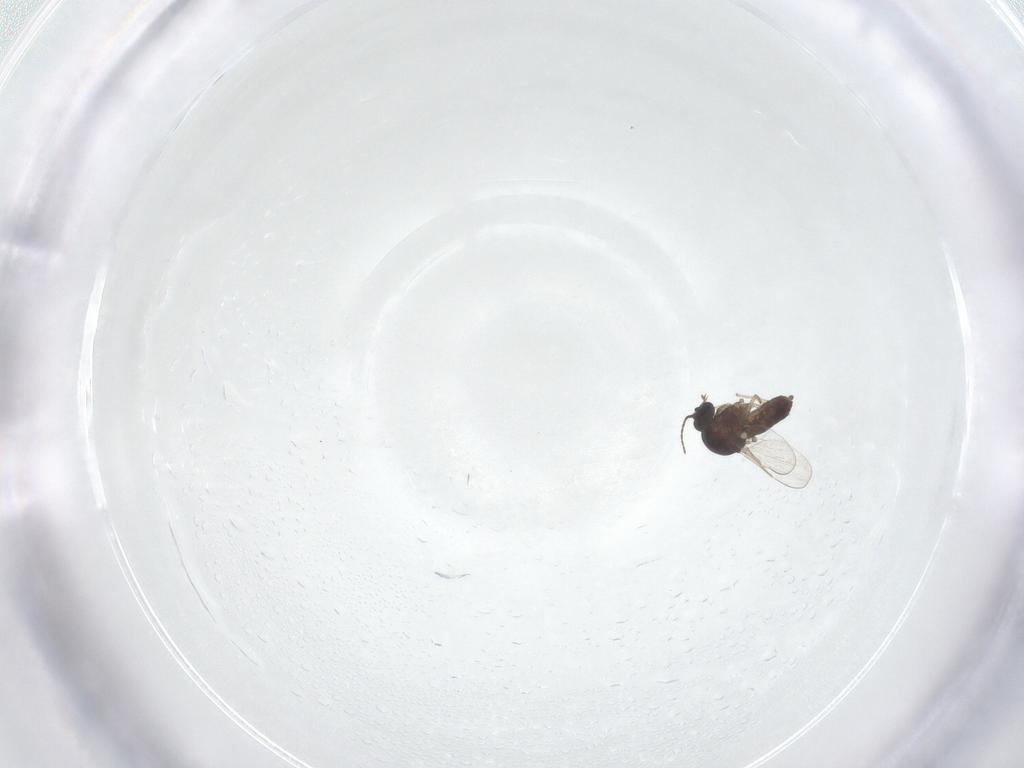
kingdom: Animalia
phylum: Arthropoda
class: Insecta
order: Diptera
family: Ceratopogonidae
